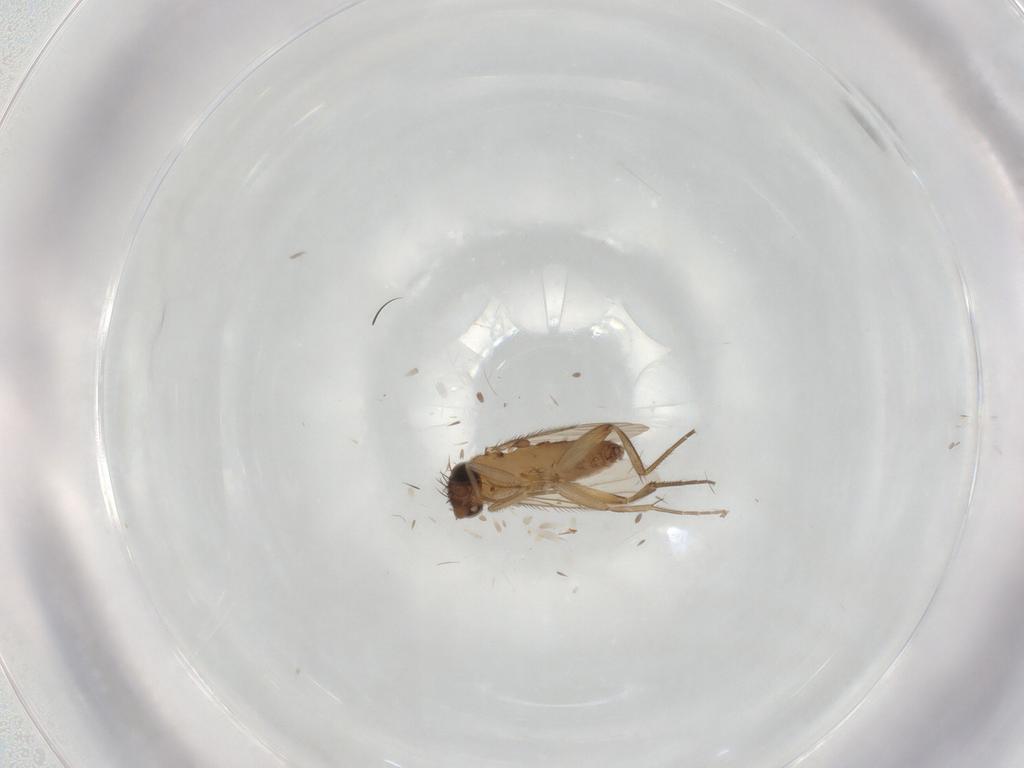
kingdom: Animalia
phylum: Arthropoda
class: Insecta
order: Diptera
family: Phoridae
